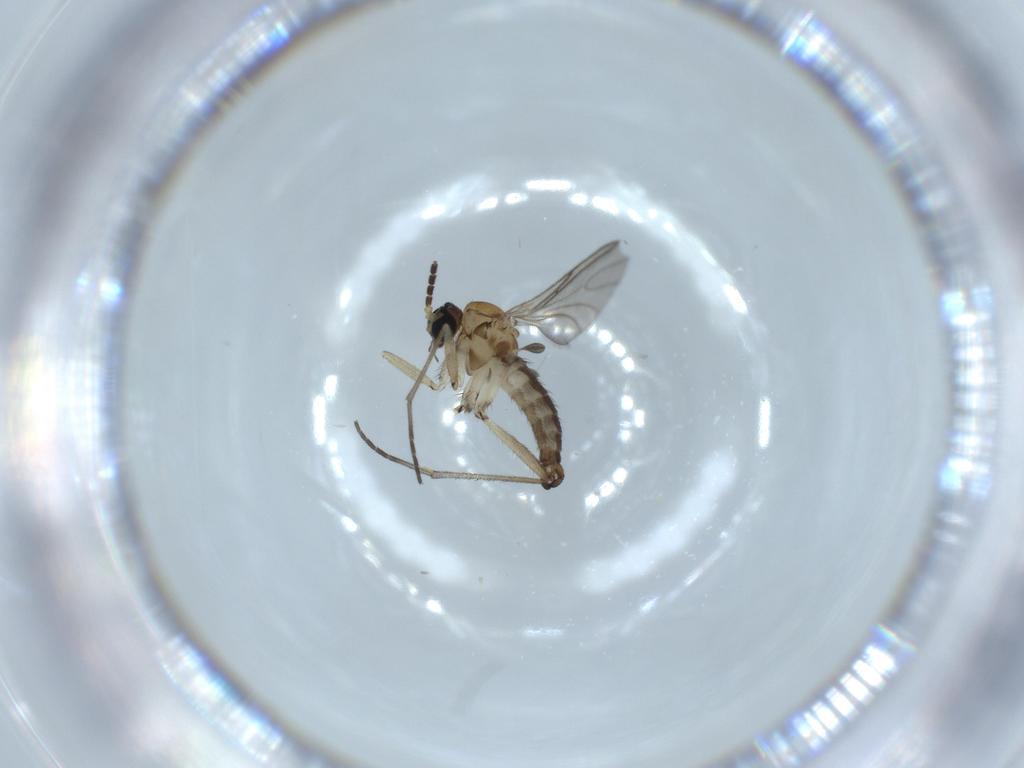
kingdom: Animalia
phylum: Arthropoda
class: Insecta
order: Diptera
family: Sciaridae
